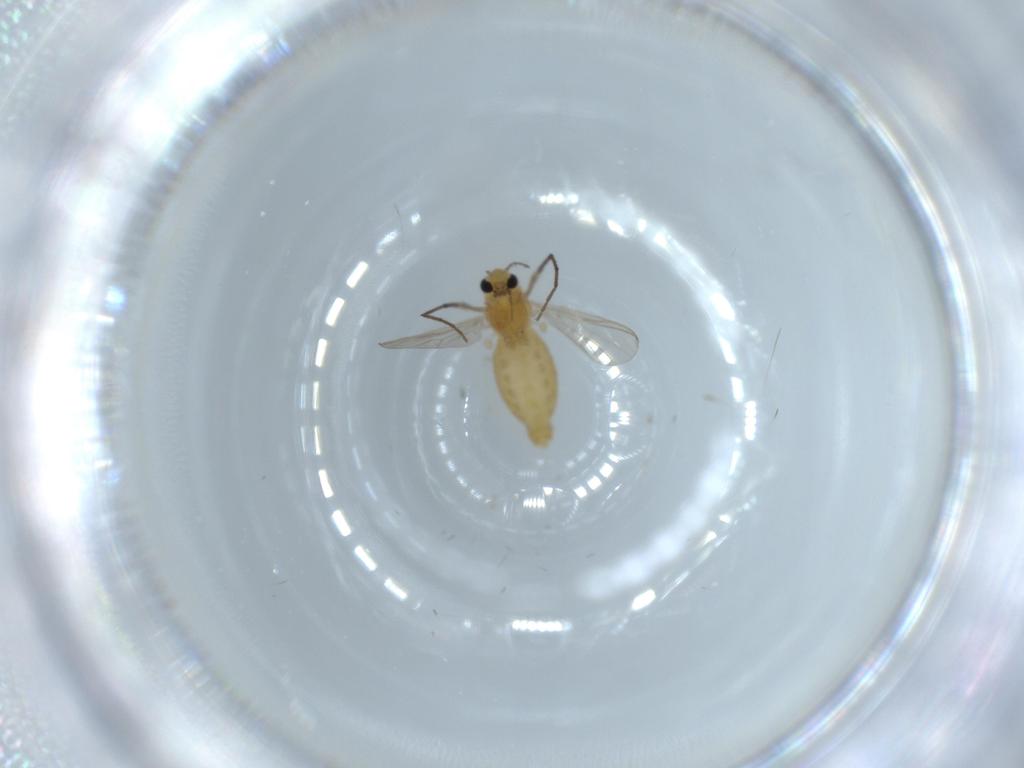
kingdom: Animalia
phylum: Arthropoda
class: Insecta
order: Diptera
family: Chironomidae
